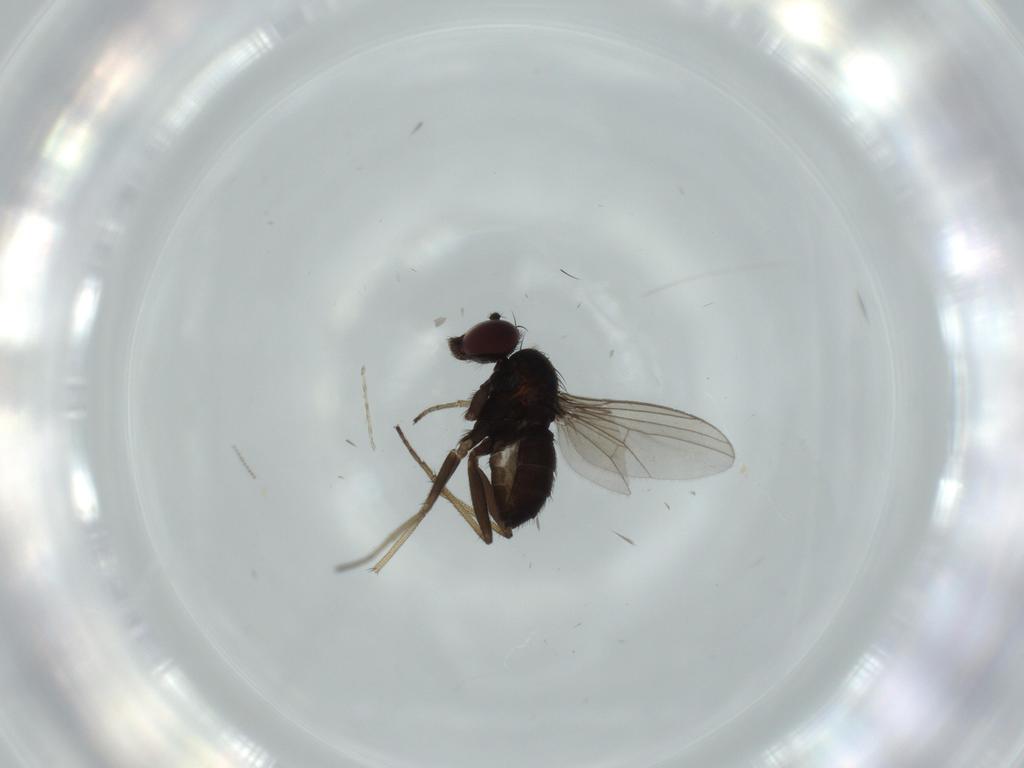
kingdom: Animalia
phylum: Arthropoda
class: Insecta
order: Diptera
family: Dolichopodidae
